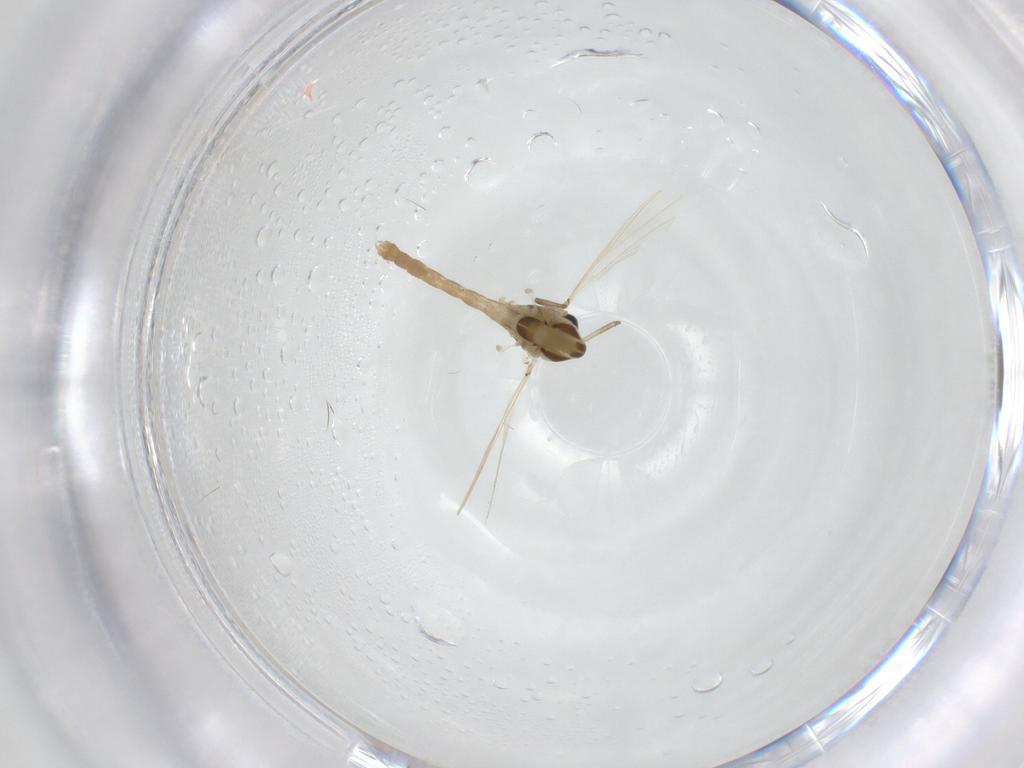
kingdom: Animalia
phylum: Arthropoda
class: Insecta
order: Diptera
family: Chironomidae
